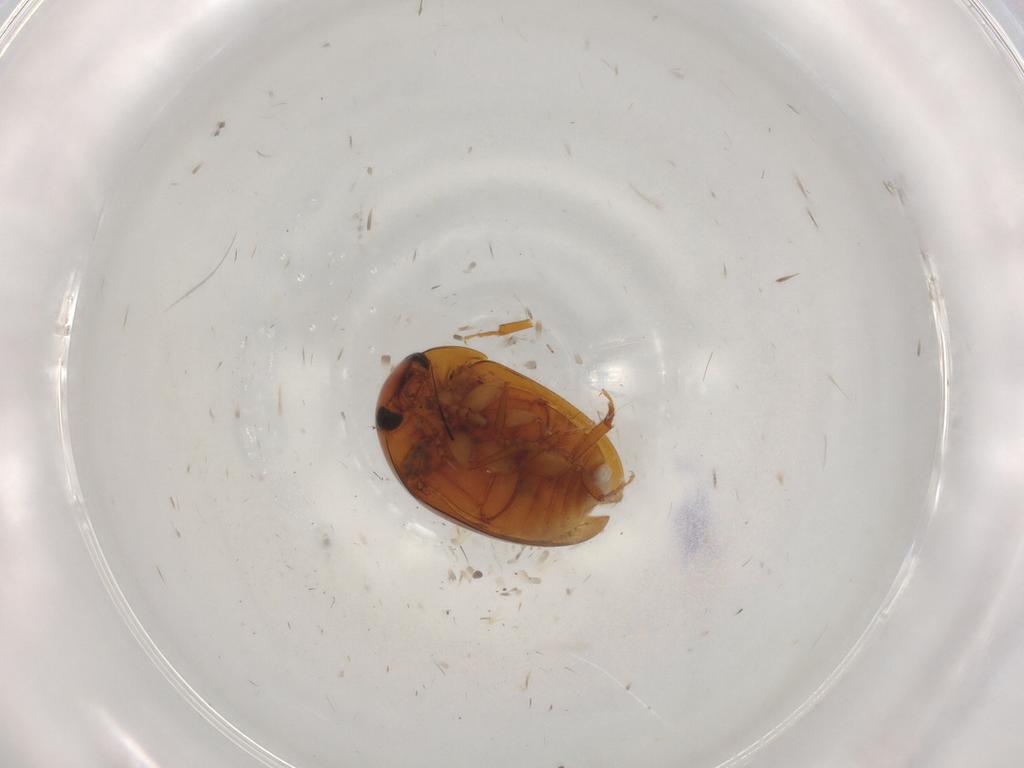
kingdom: Animalia
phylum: Arthropoda
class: Insecta
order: Coleoptera
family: Phalacridae
